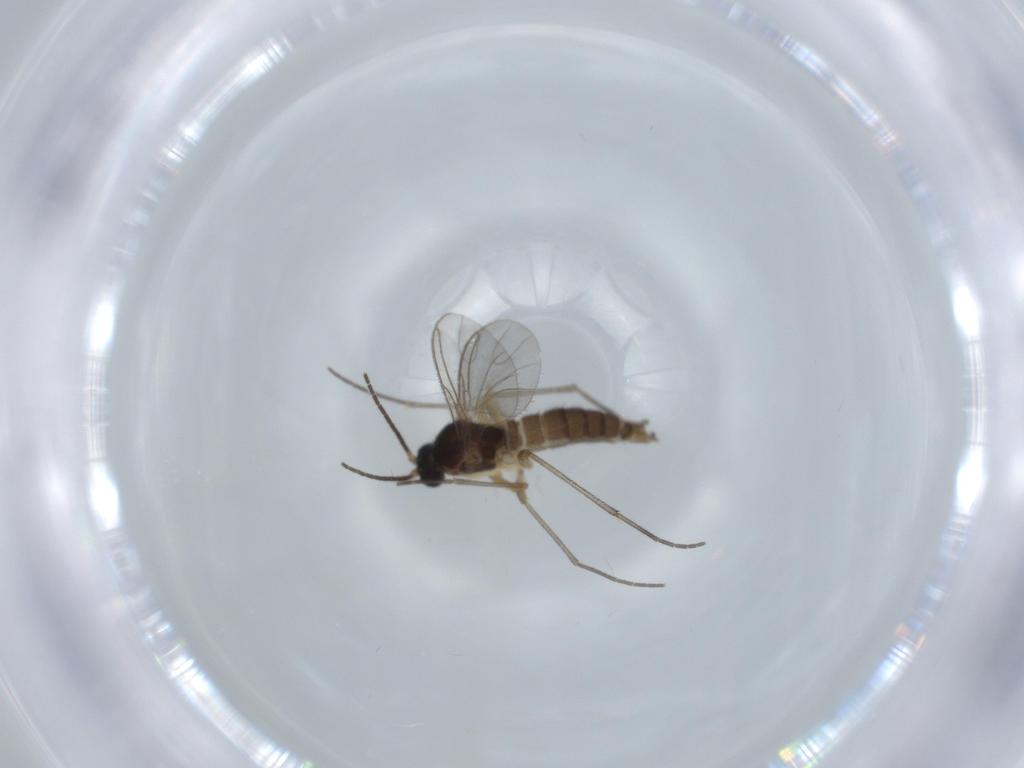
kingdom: Animalia
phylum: Arthropoda
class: Insecta
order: Diptera
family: Sciaridae
